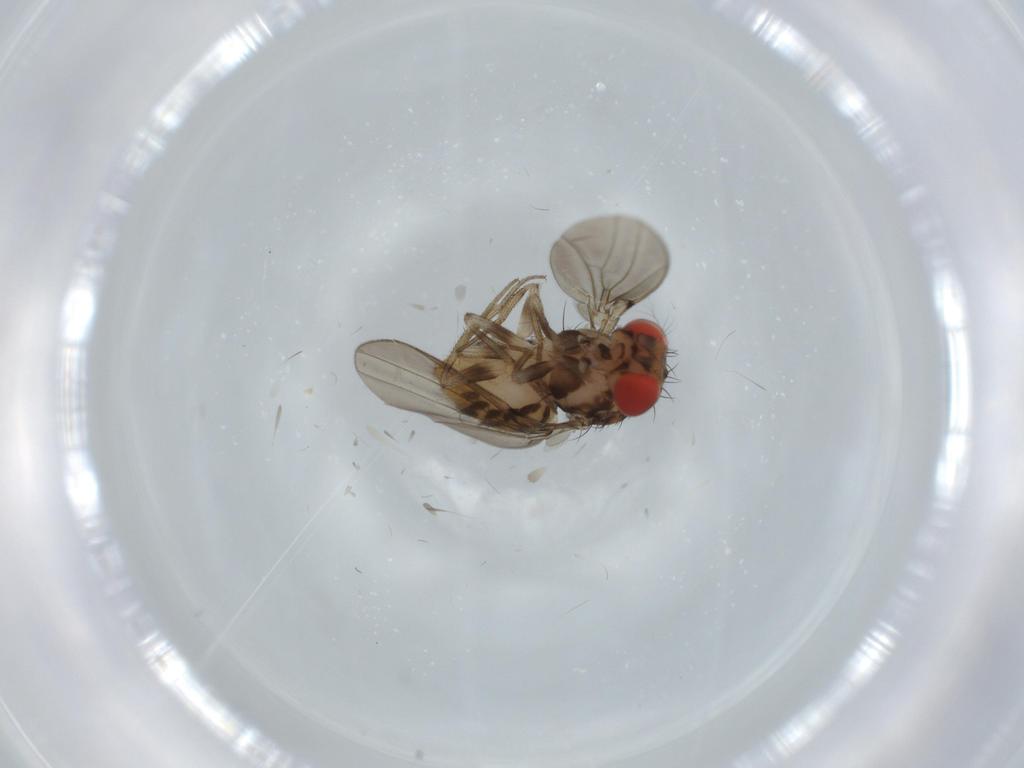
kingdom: Animalia
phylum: Arthropoda
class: Insecta
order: Diptera
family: Drosophilidae
